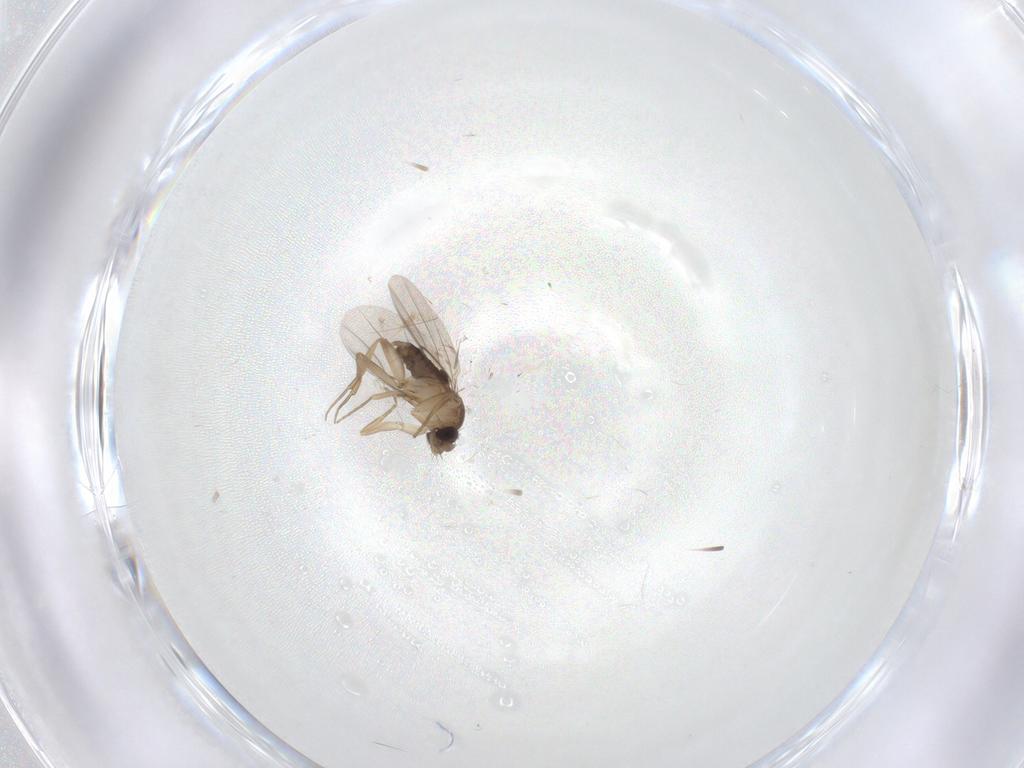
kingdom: Animalia
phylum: Arthropoda
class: Insecta
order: Diptera
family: Phoridae
